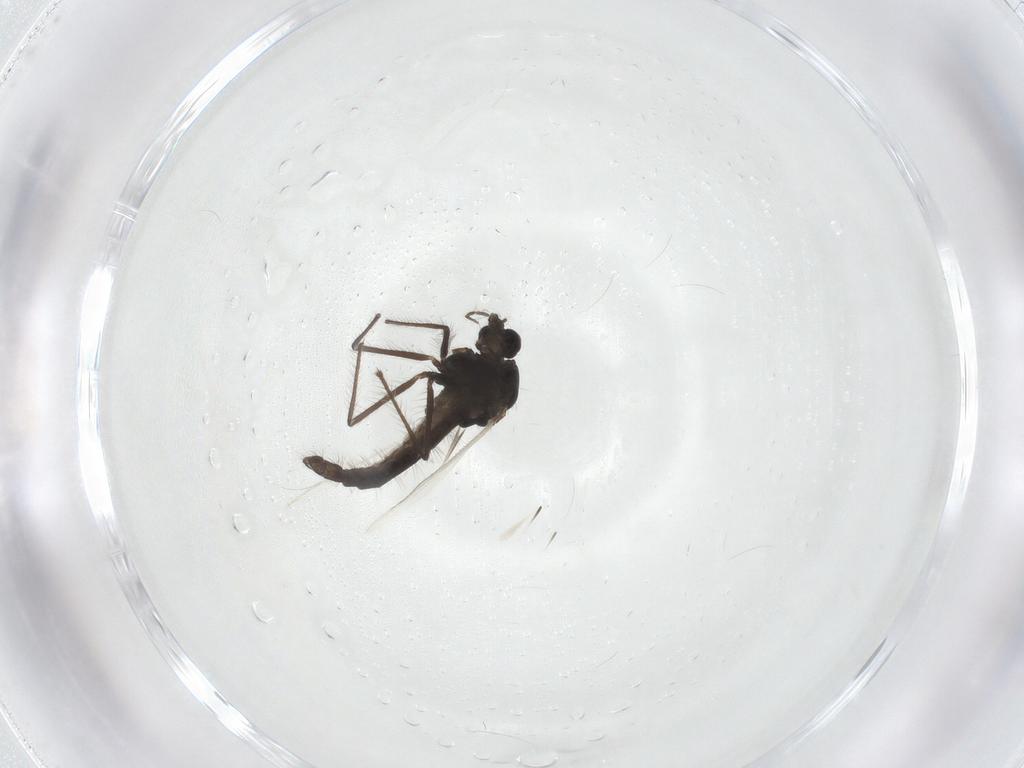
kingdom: Animalia
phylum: Arthropoda
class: Insecta
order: Diptera
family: Chironomidae
